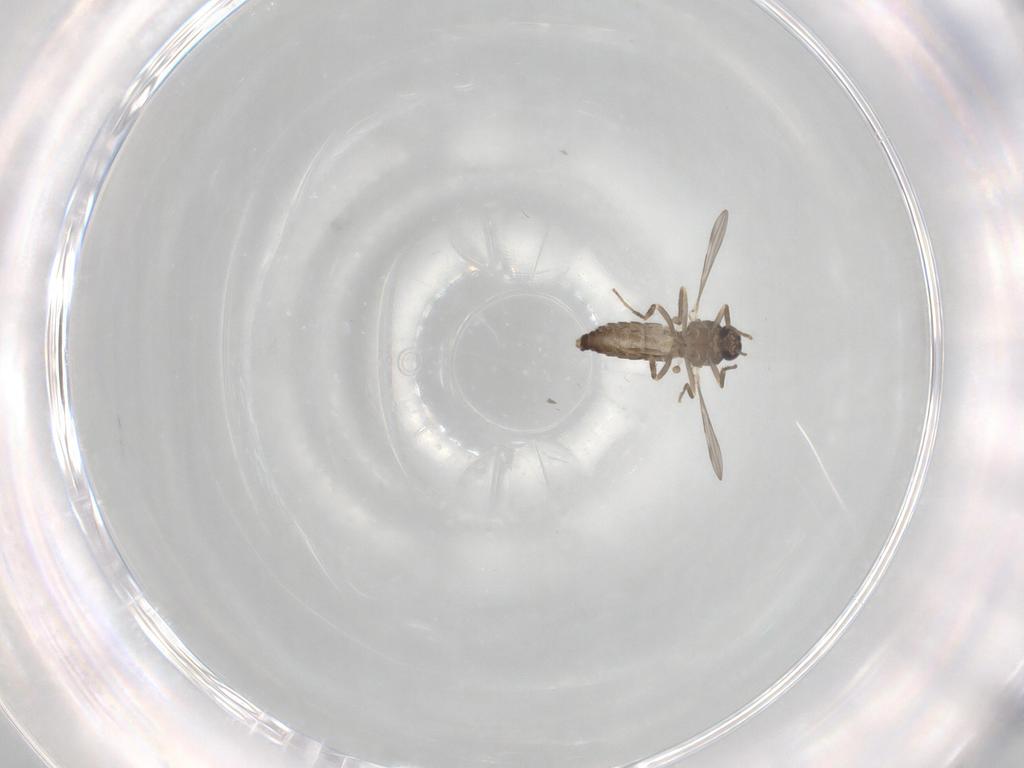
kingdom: Animalia
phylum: Arthropoda
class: Insecta
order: Diptera
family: Ceratopogonidae
